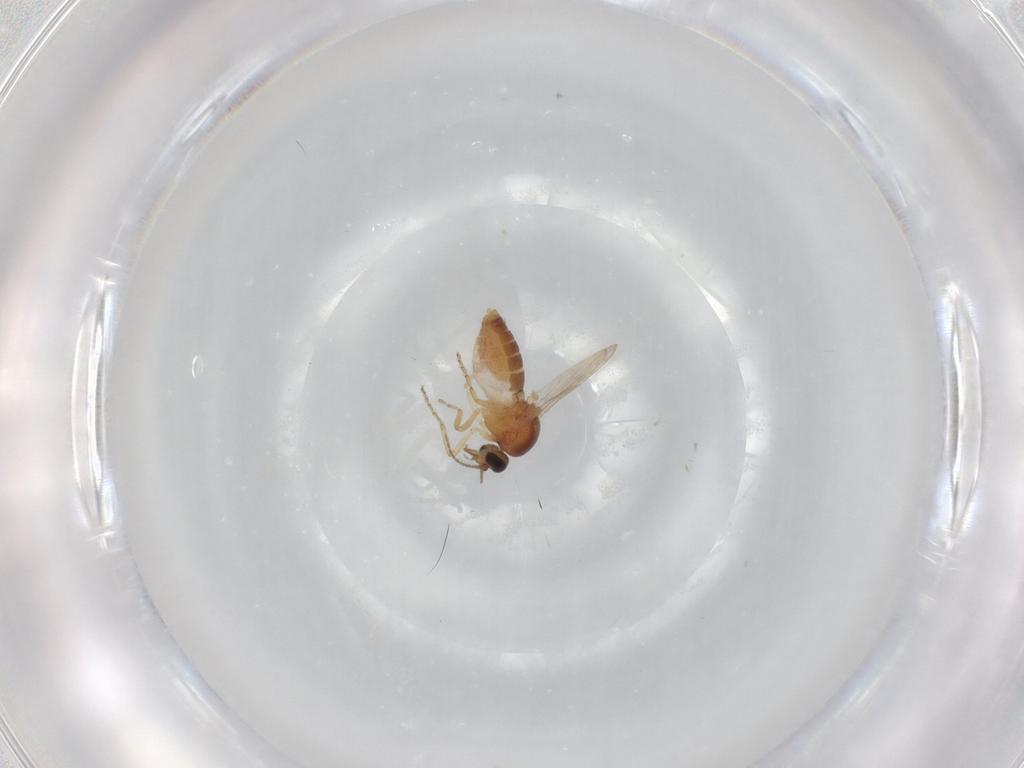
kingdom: Animalia
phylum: Arthropoda
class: Insecta
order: Diptera
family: Ceratopogonidae
